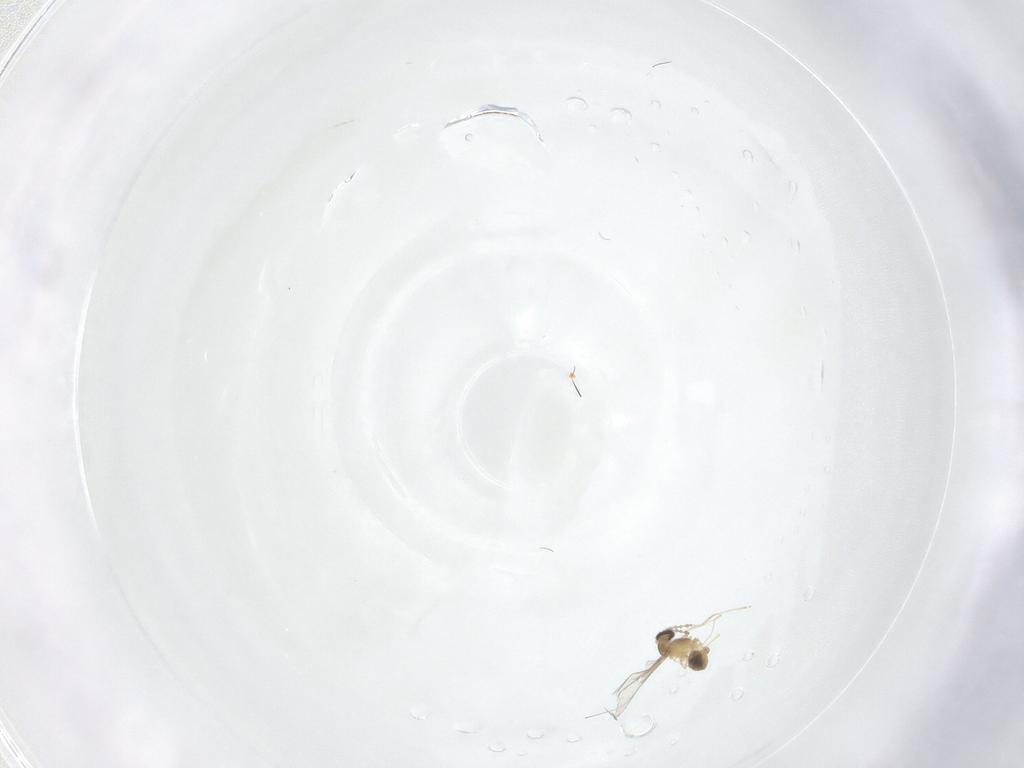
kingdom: Animalia
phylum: Arthropoda
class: Insecta
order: Diptera
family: Cecidomyiidae
